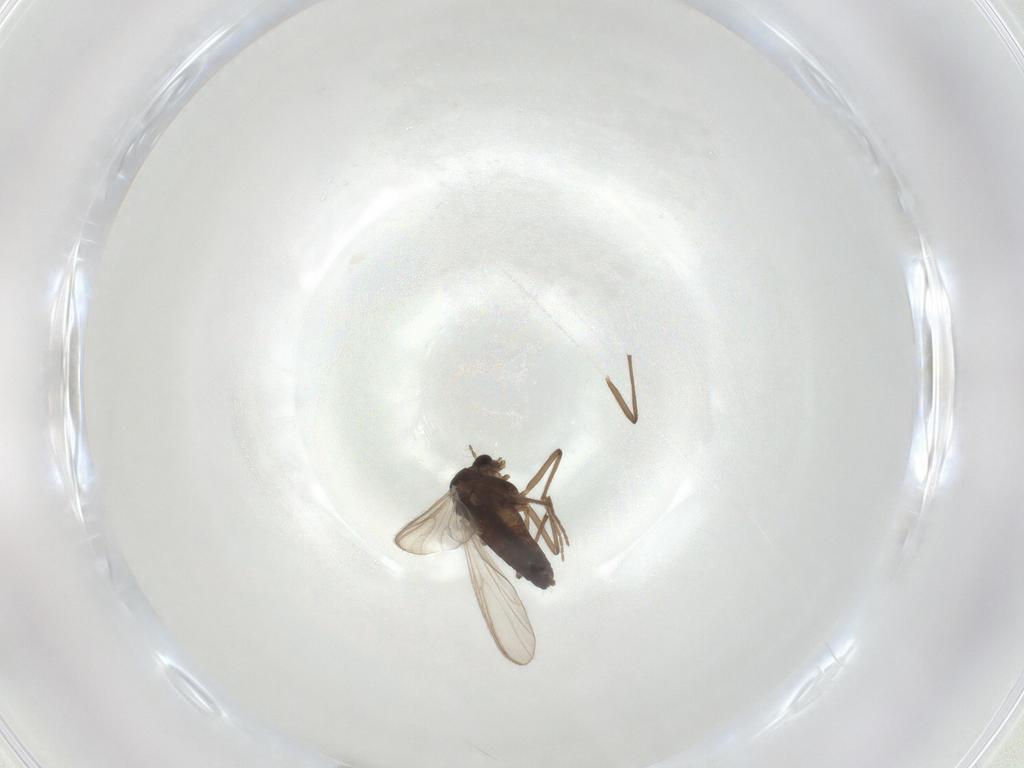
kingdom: Animalia
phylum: Arthropoda
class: Insecta
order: Diptera
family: Chironomidae
